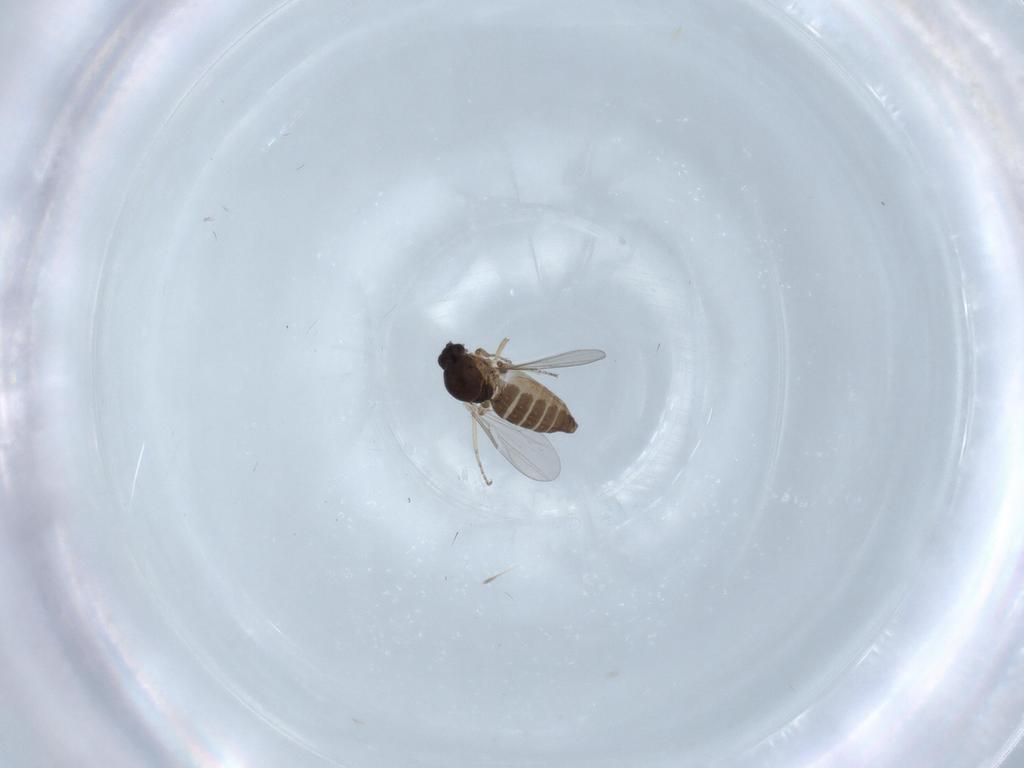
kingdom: Animalia
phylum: Arthropoda
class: Insecta
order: Diptera
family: Ceratopogonidae
